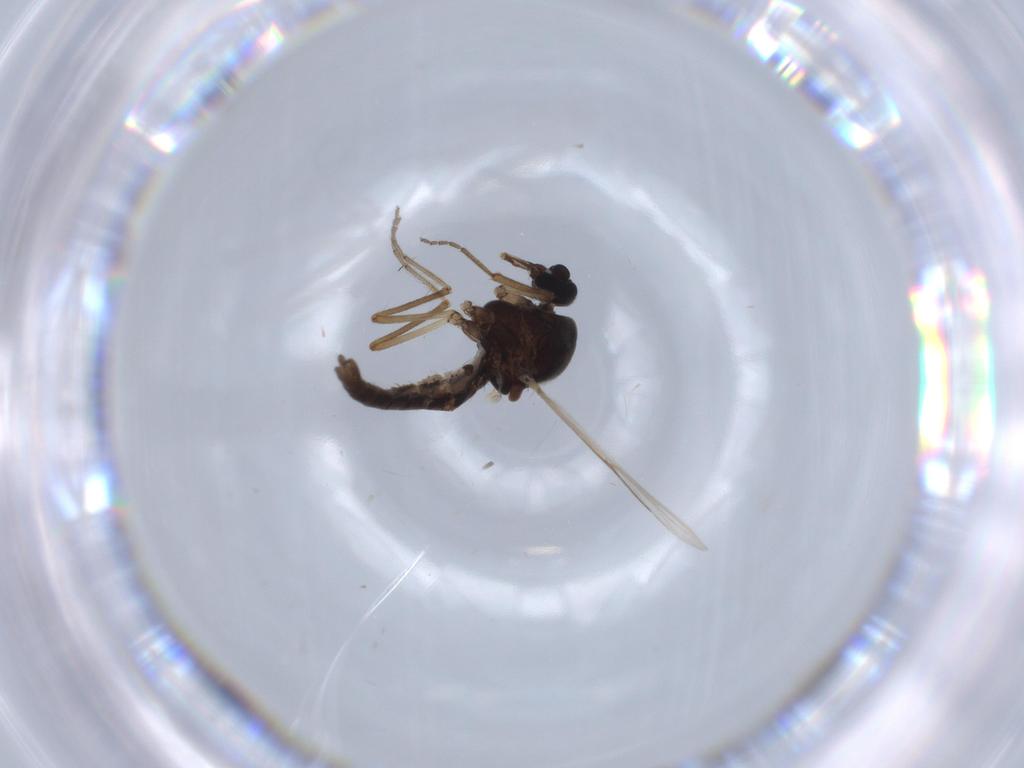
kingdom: Animalia
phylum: Arthropoda
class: Insecta
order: Diptera
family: Ceratopogonidae
